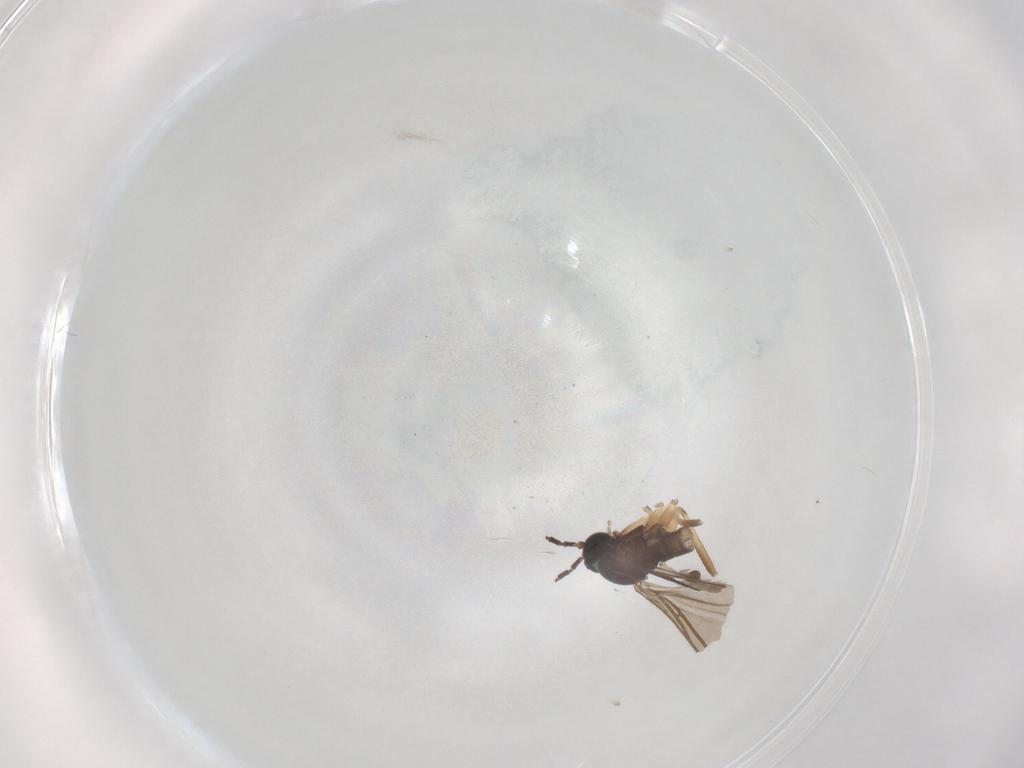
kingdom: Animalia
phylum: Arthropoda
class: Insecta
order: Diptera
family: Sciaridae
